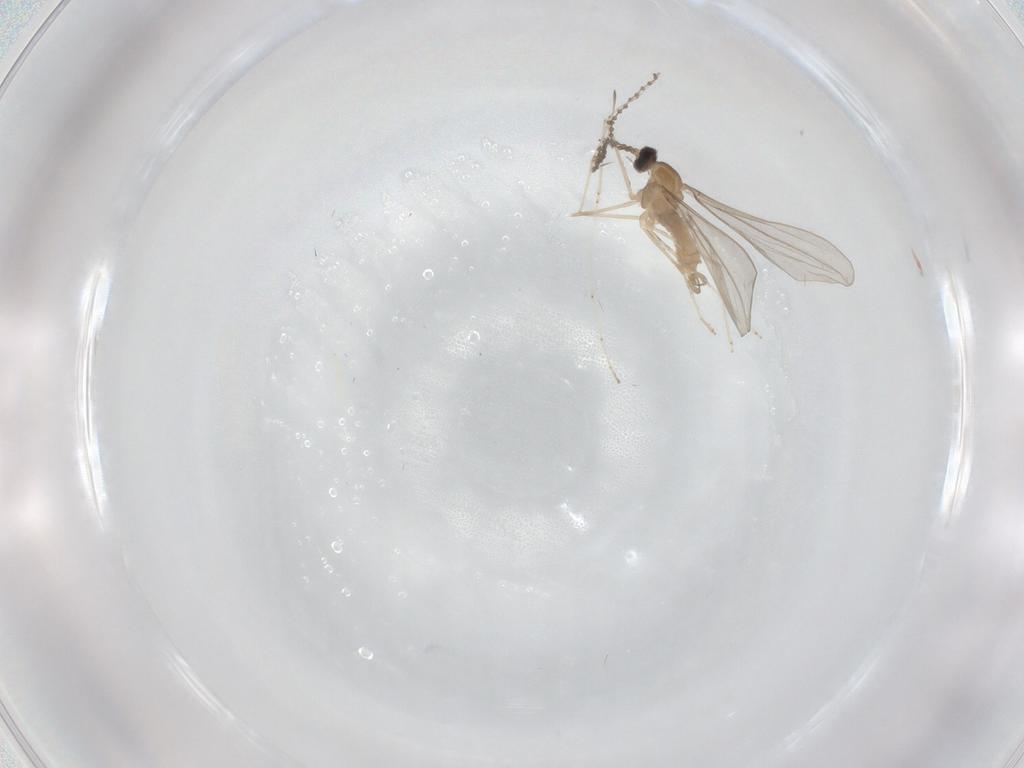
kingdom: Animalia
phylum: Arthropoda
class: Insecta
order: Diptera
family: Cecidomyiidae
